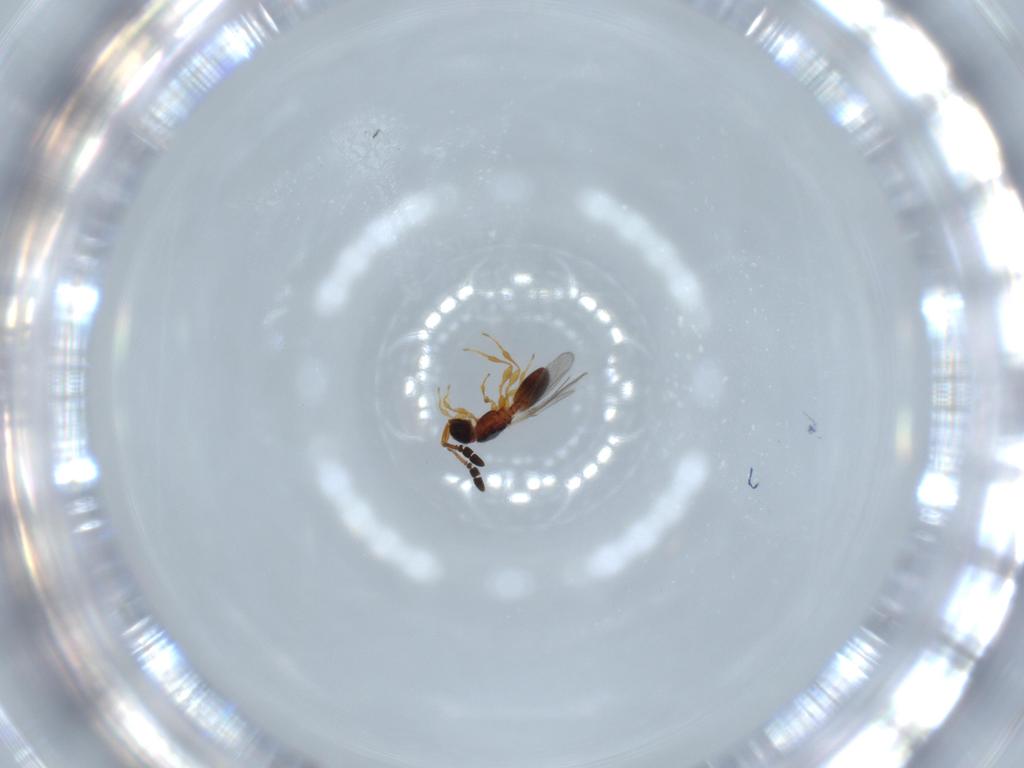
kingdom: Animalia
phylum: Arthropoda
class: Insecta
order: Hymenoptera
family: Diapriidae
